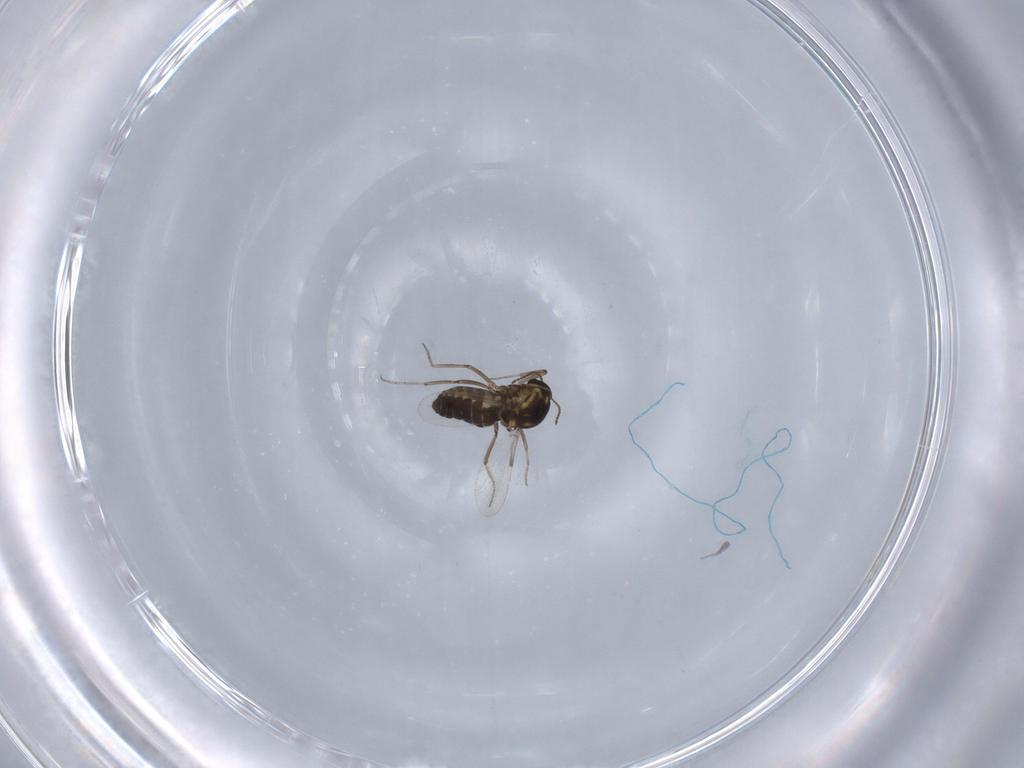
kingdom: Animalia
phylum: Arthropoda
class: Insecta
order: Diptera
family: Ceratopogonidae
